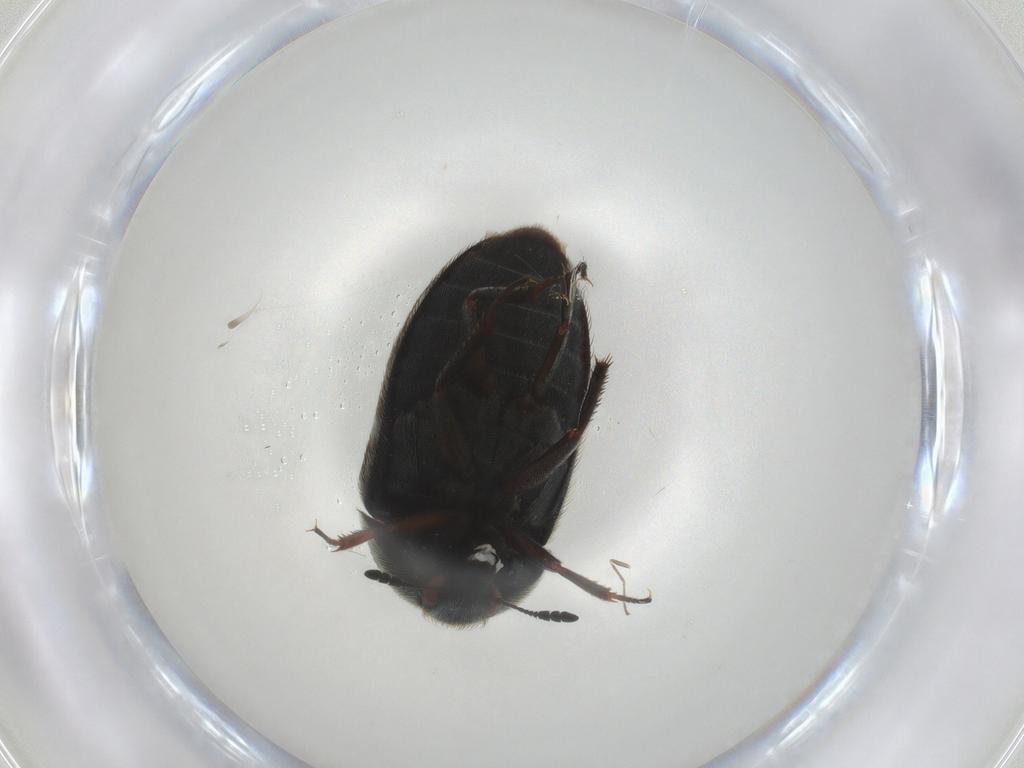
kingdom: Animalia
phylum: Arthropoda
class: Insecta
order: Coleoptera
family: Dermestidae
